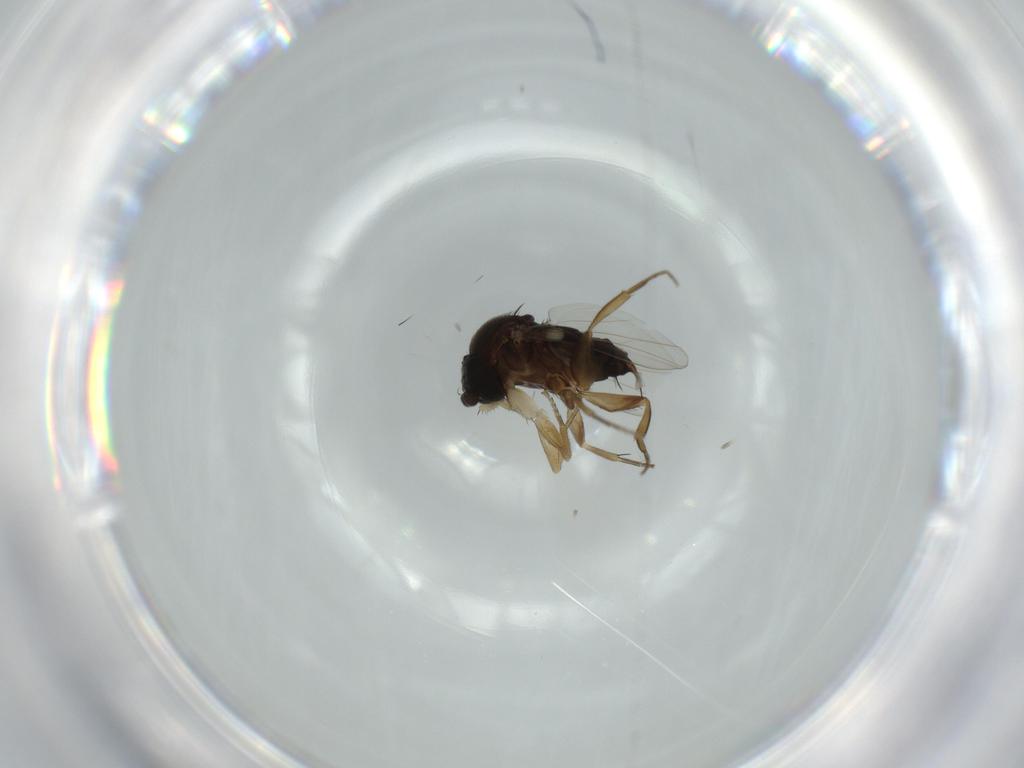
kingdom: Animalia
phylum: Arthropoda
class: Insecta
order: Diptera
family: Phoridae
